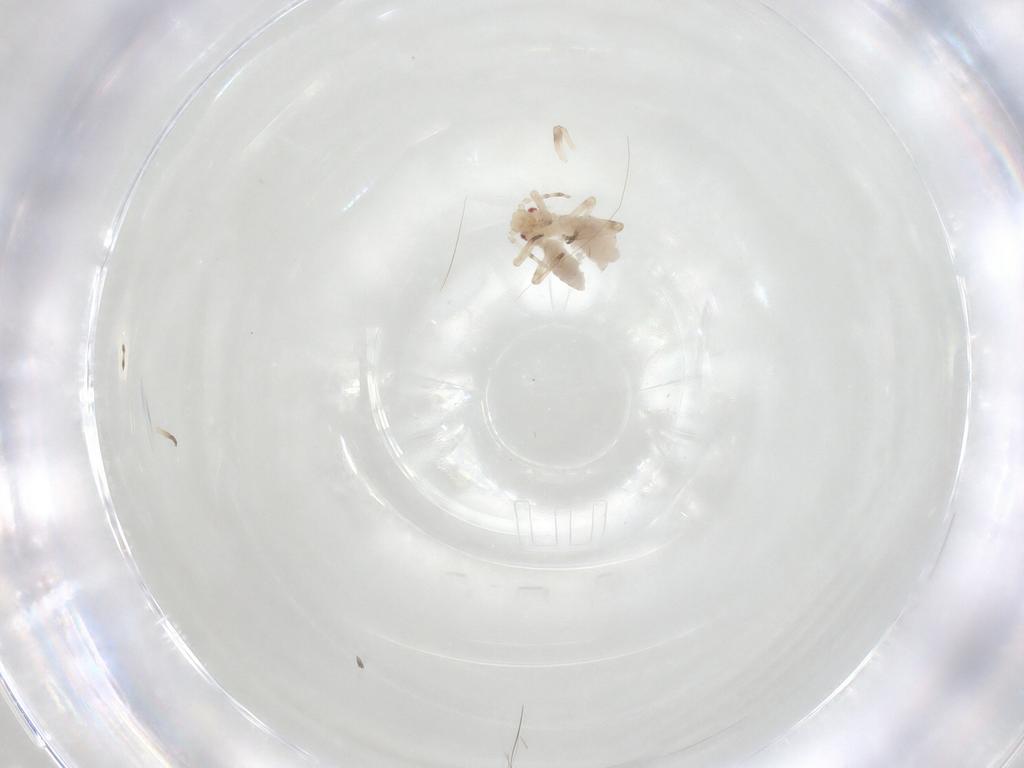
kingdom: Animalia
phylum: Arthropoda
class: Insecta
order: Hemiptera
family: Aphididae
